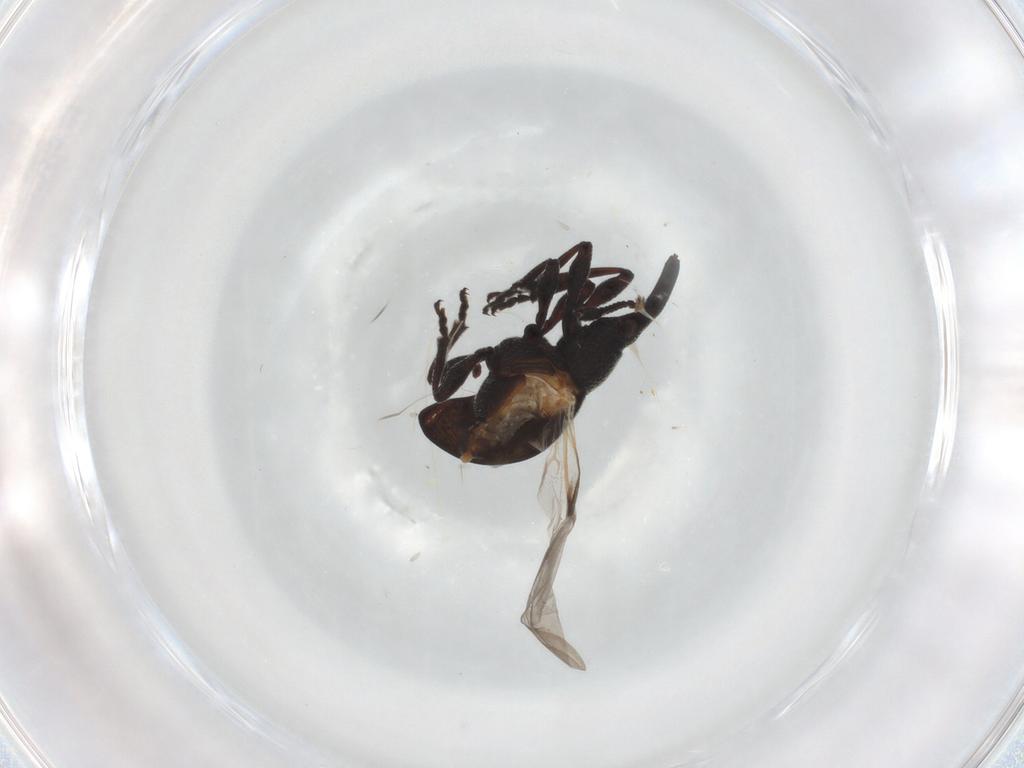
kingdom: Animalia
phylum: Arthropoda
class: Insecta
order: Coleoptera
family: Brentidae
